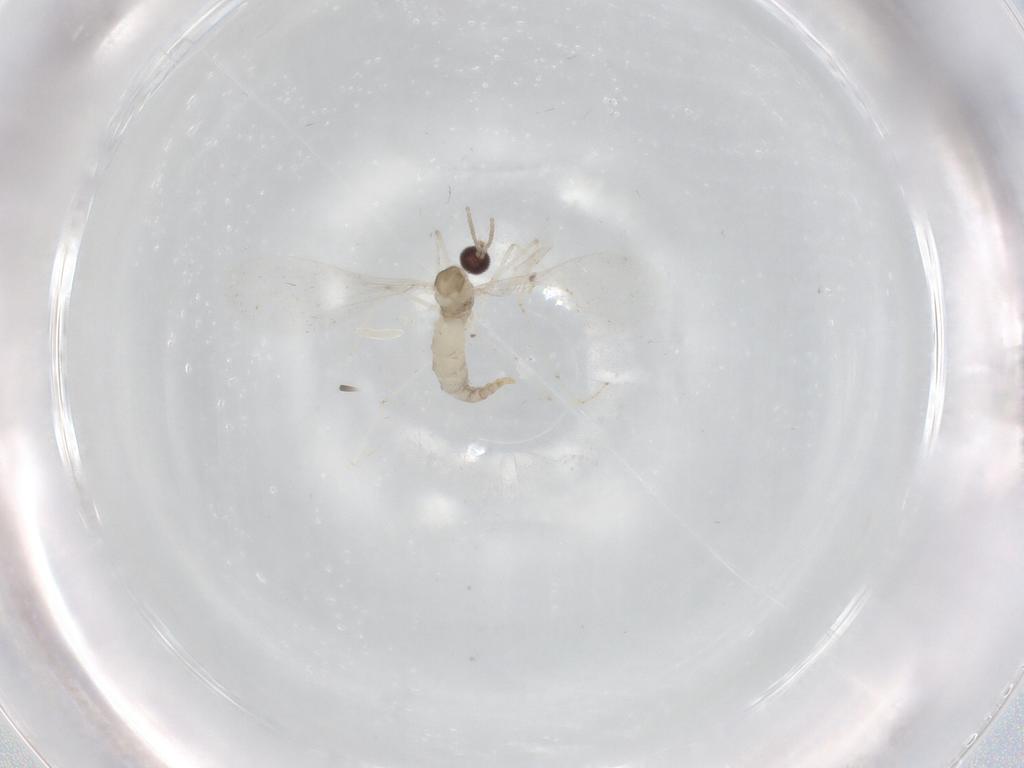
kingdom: Animalia
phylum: Arthropoda
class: Insecta
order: Diptera
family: Cecidomyiidae
